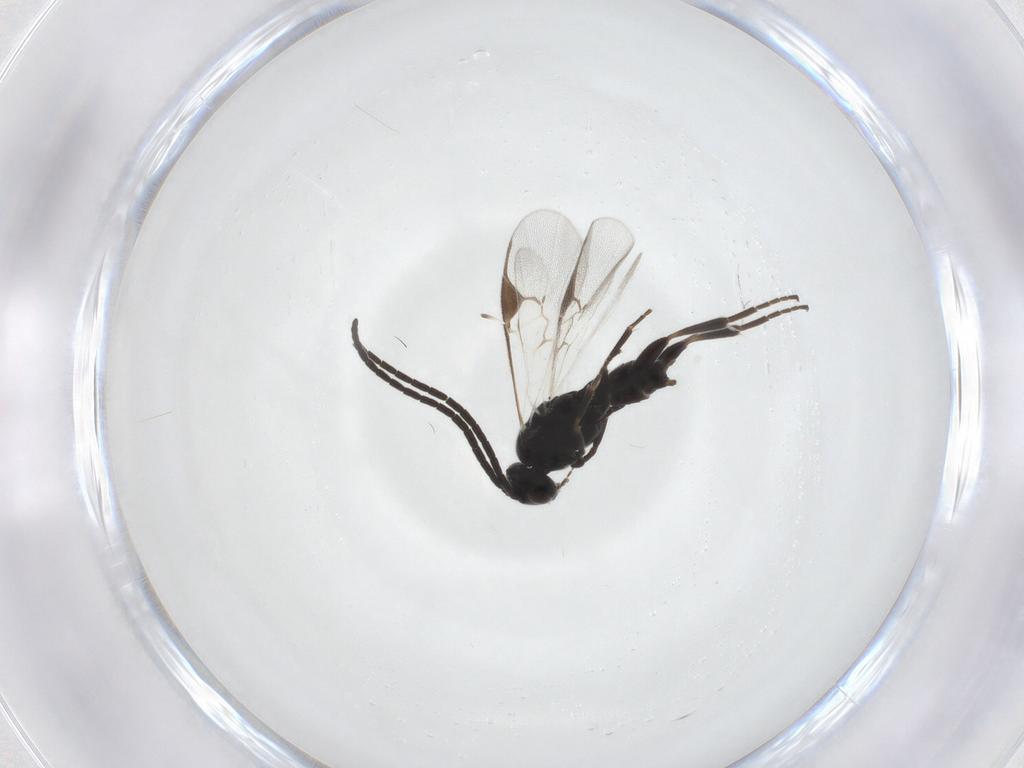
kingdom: Animalia
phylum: Arthropoda
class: Insecta
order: Hymenoptera
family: Braconidae
